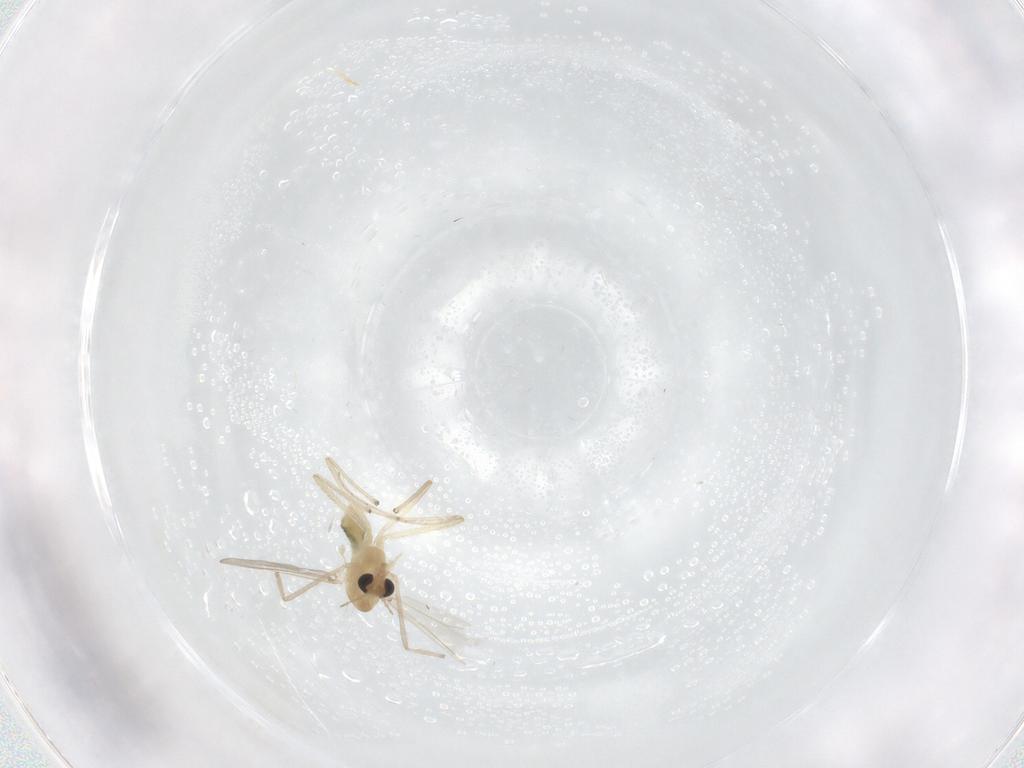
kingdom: Animalia
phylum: Arthropoda
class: Insecta
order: Diptera
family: Chironomidae
